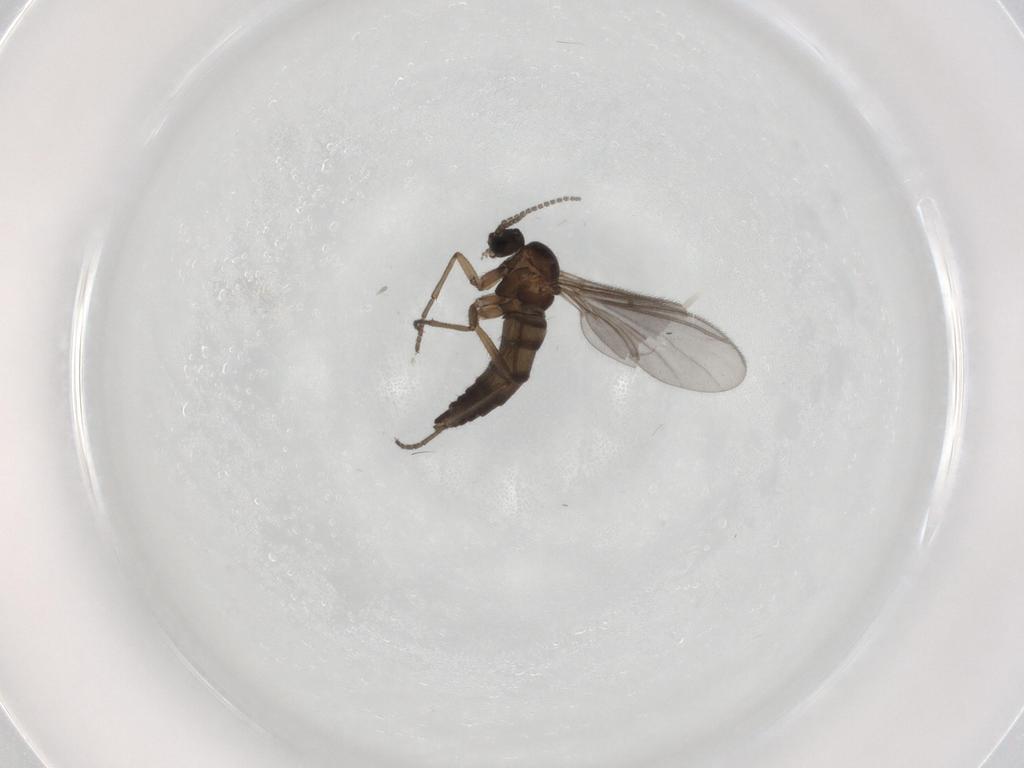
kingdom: Animalia
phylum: Arthropoda
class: Insecta
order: Diptera
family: Sciaridae
